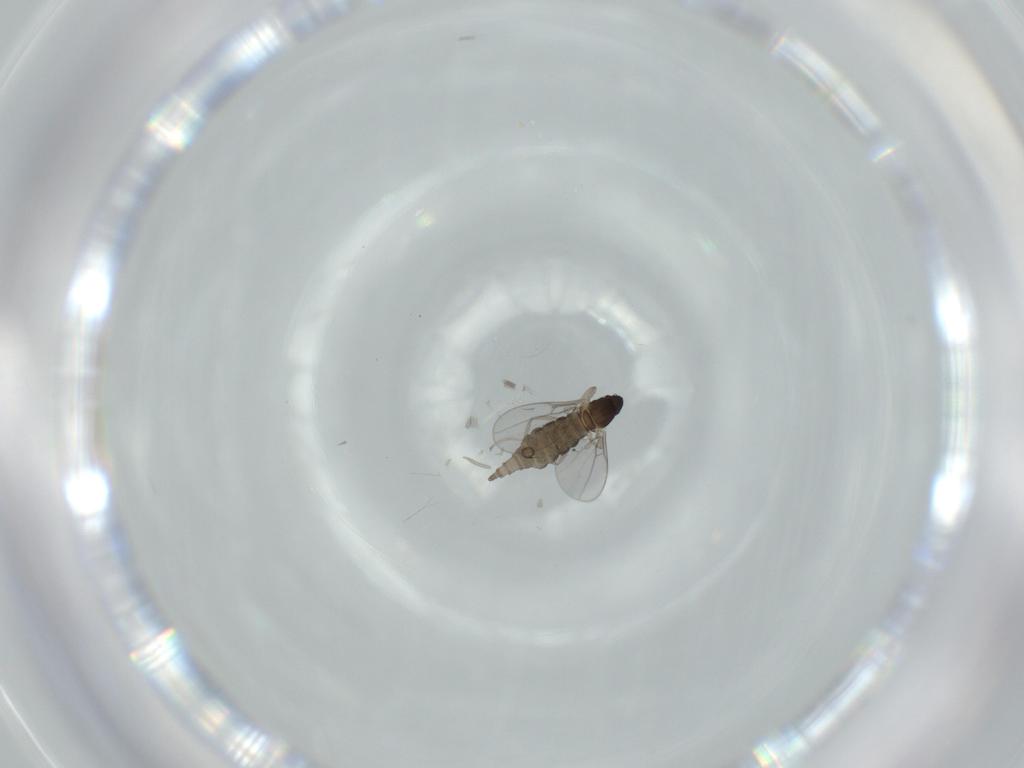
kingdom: Animalia
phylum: Arthropoda
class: Insecta
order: Diptera
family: Cecidomyiidae
